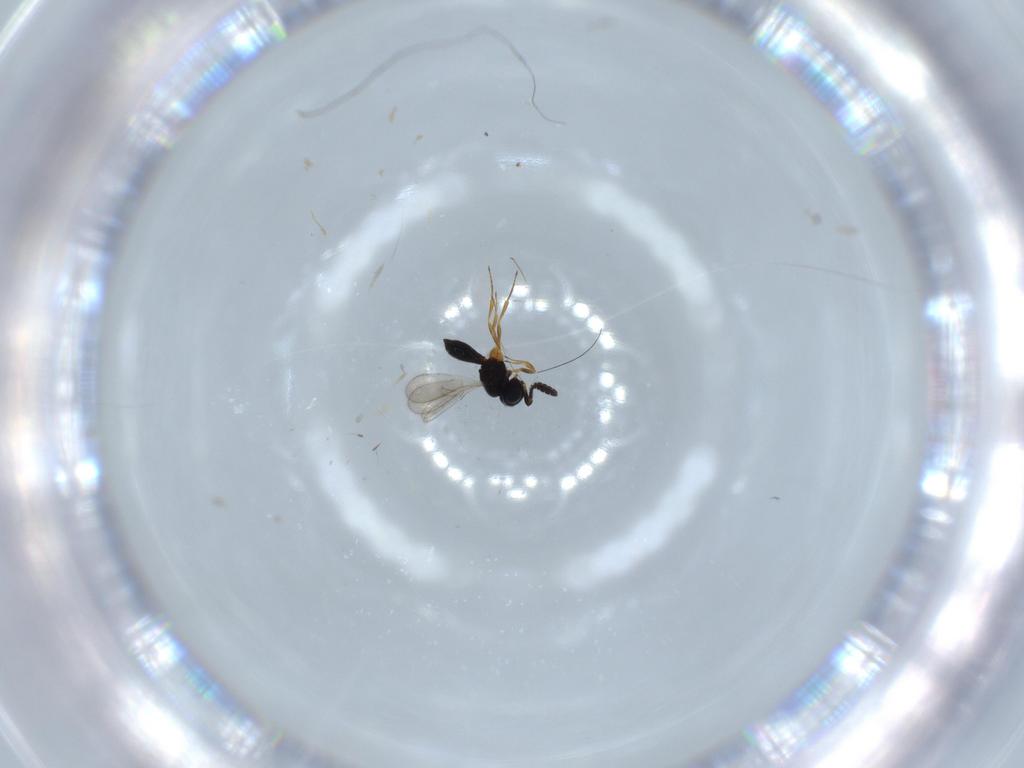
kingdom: Animalia
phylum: Arthropoda
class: Insecta
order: Hymenoptera
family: Scelionidae
